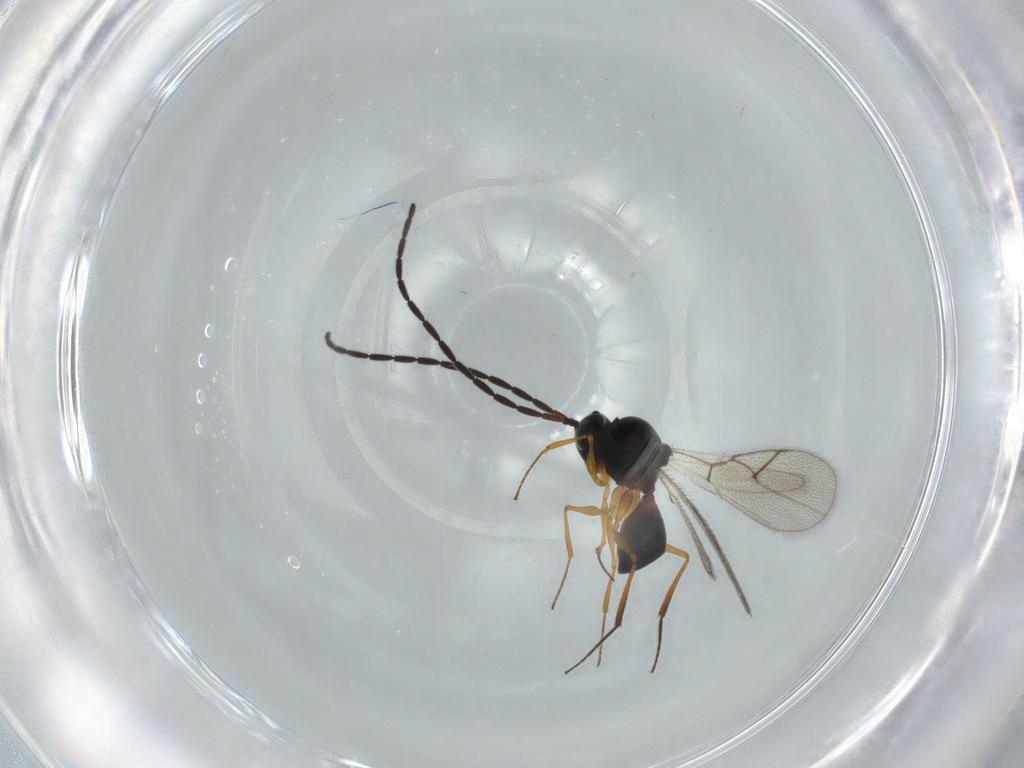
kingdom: Animalia
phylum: Arthropoda
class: Insecta
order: Hymenoptera
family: Figitidae
